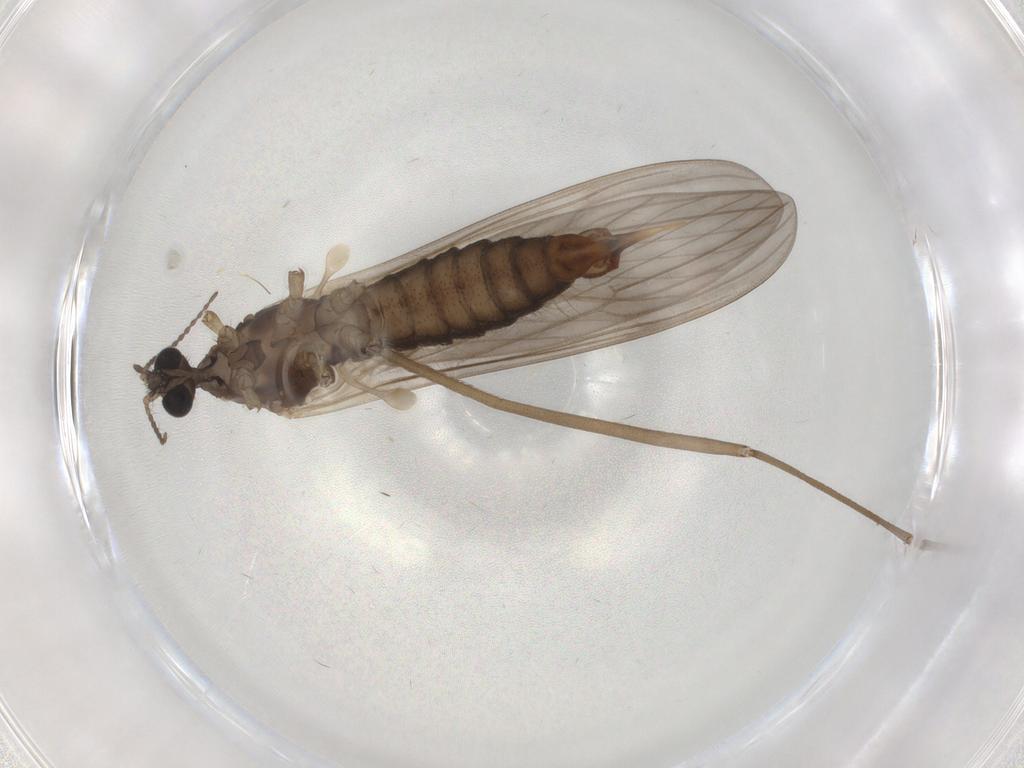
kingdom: Animalia
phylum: Arthropoda
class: Insecta
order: Diptera
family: Limoniidae
